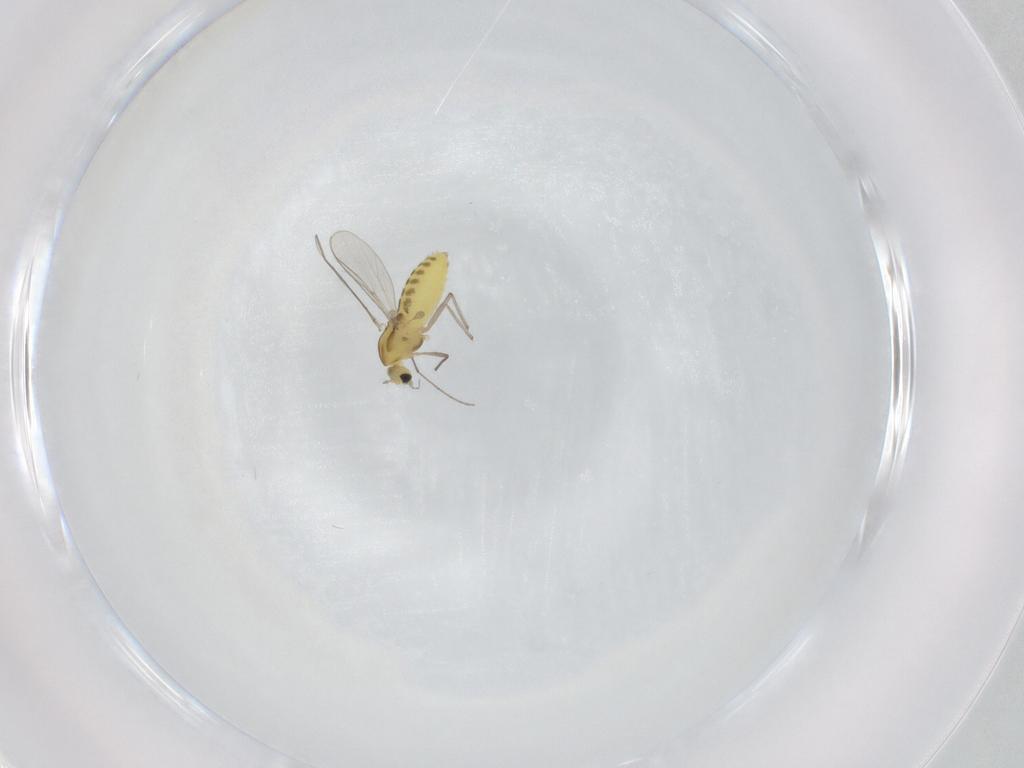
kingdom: Animalia
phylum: Arthropoda
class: Insecta
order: Diptera
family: Chironomidae
